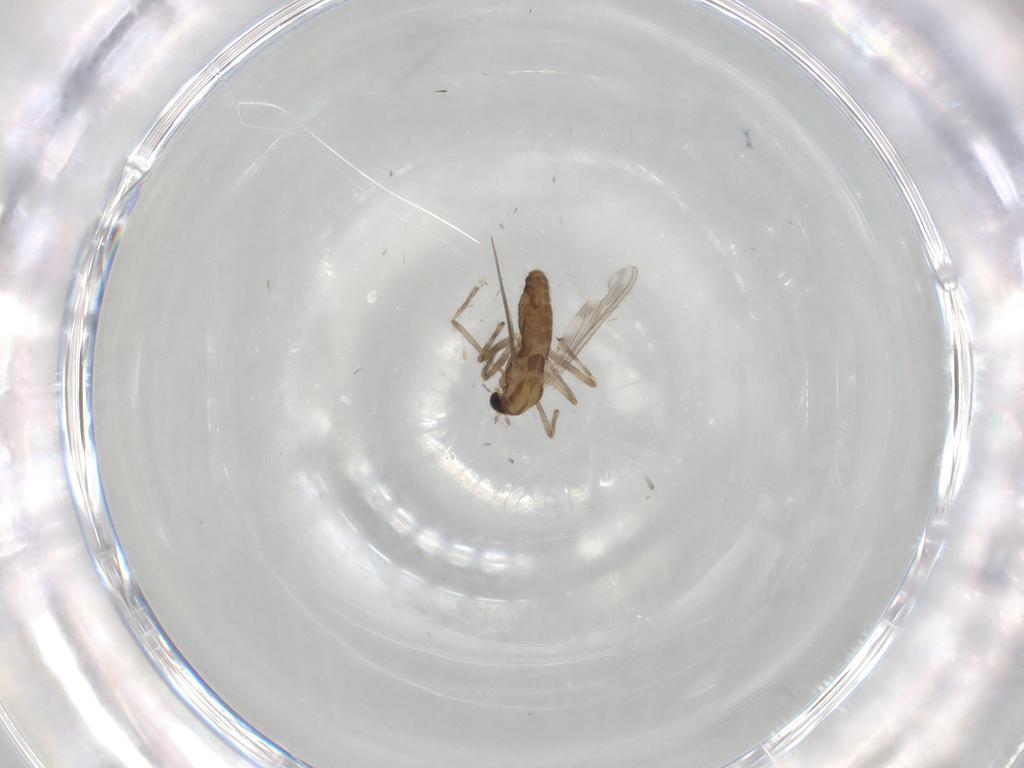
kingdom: Animalia
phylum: Arthropoda
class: Insecta
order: Diptera
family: Chironomidae
